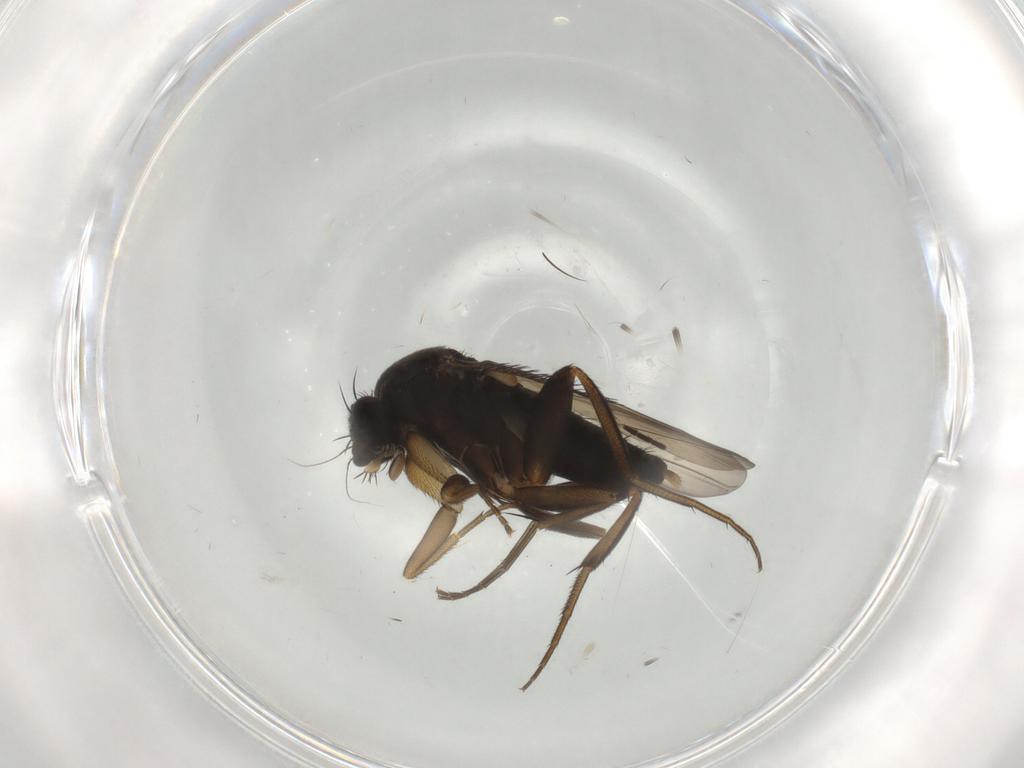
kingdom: Animalia
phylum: Arthropoda
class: Insecta
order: Diptera
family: Phoridae
